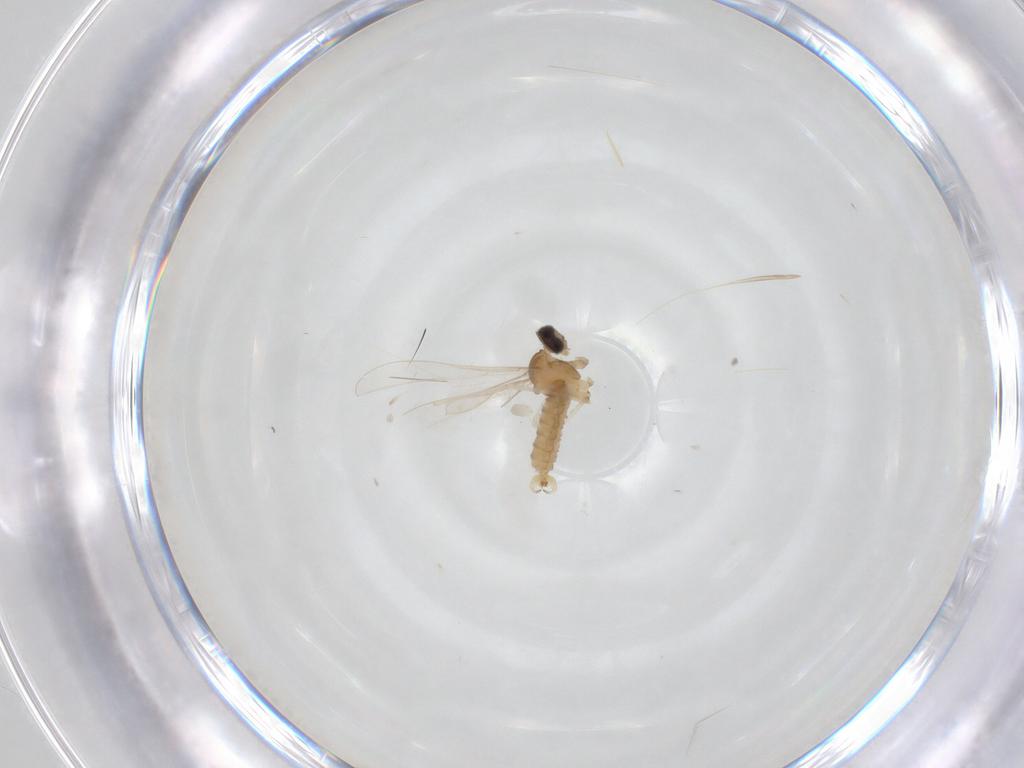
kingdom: Animalia
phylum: Arthropoda
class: Insecta
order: Diptera
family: Cecidomyiidae
